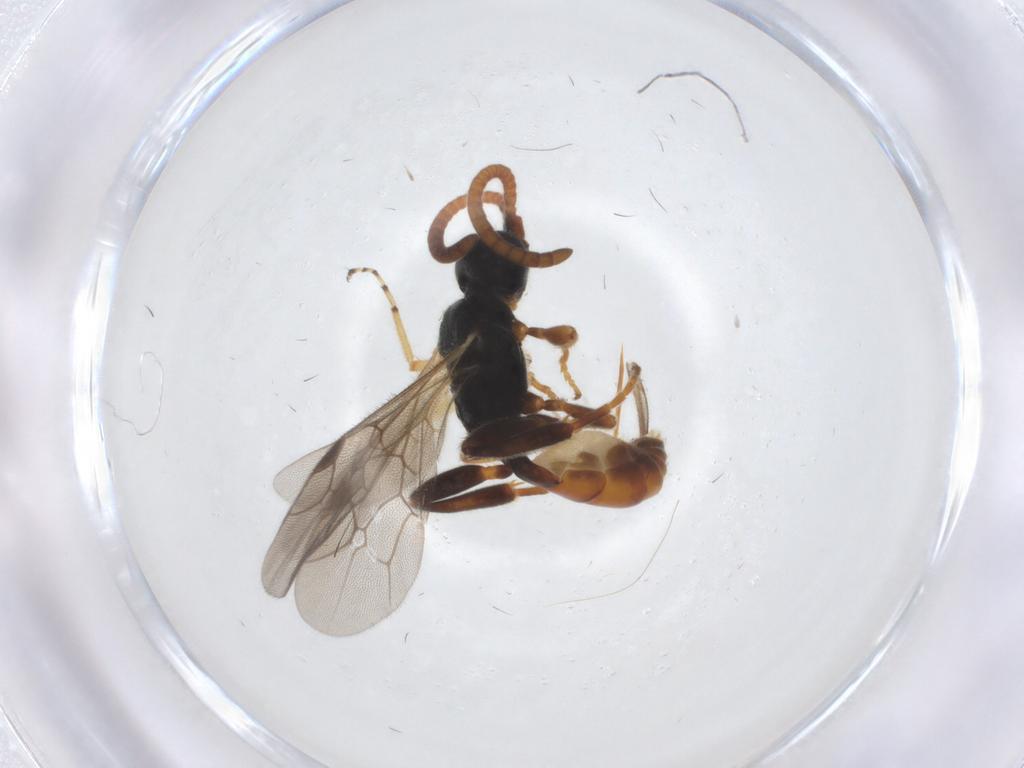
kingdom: Animalia
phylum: Arthropoda
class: Insecta
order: Hymenoptera
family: Ichneumonidae
